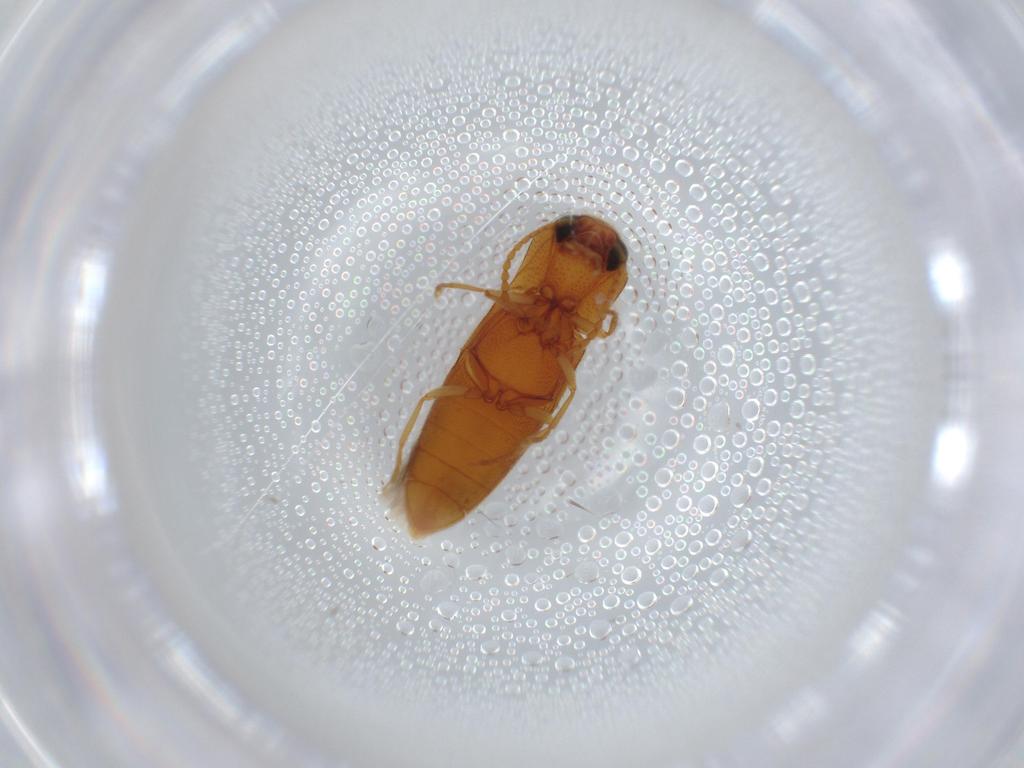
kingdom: Animalia
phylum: Arthropoda
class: Insecta
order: Coleoptera
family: Elateridae
